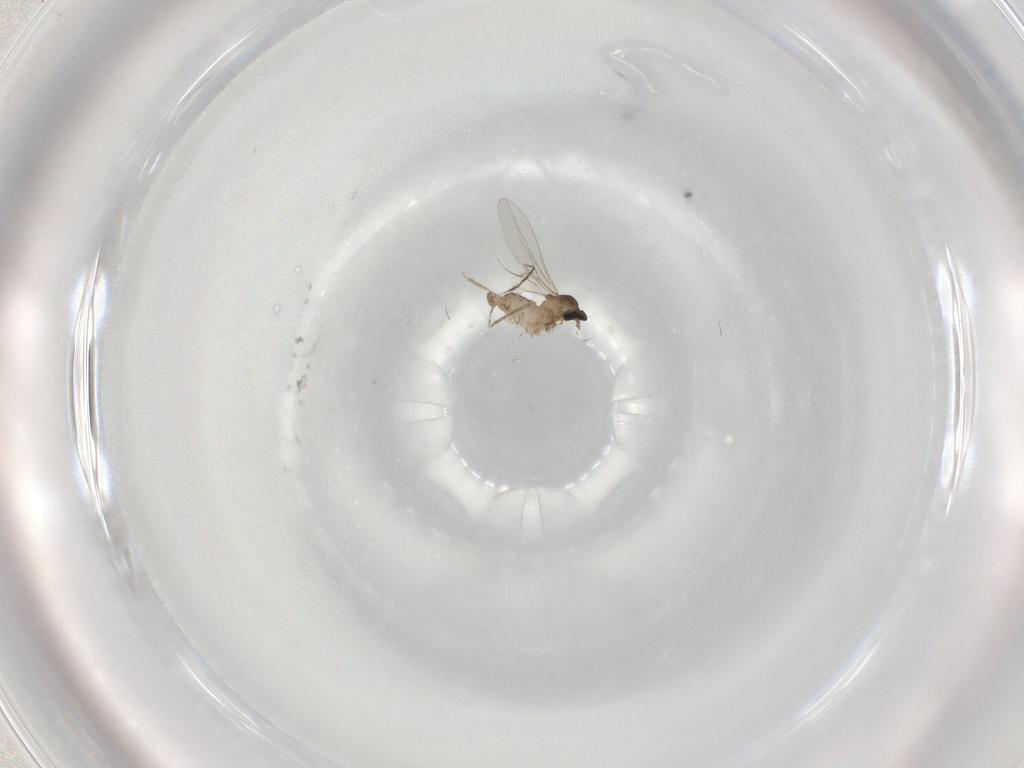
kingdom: Animalia
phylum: Arthropoda
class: Insecta
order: Diptera
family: Cecidomyiidae
